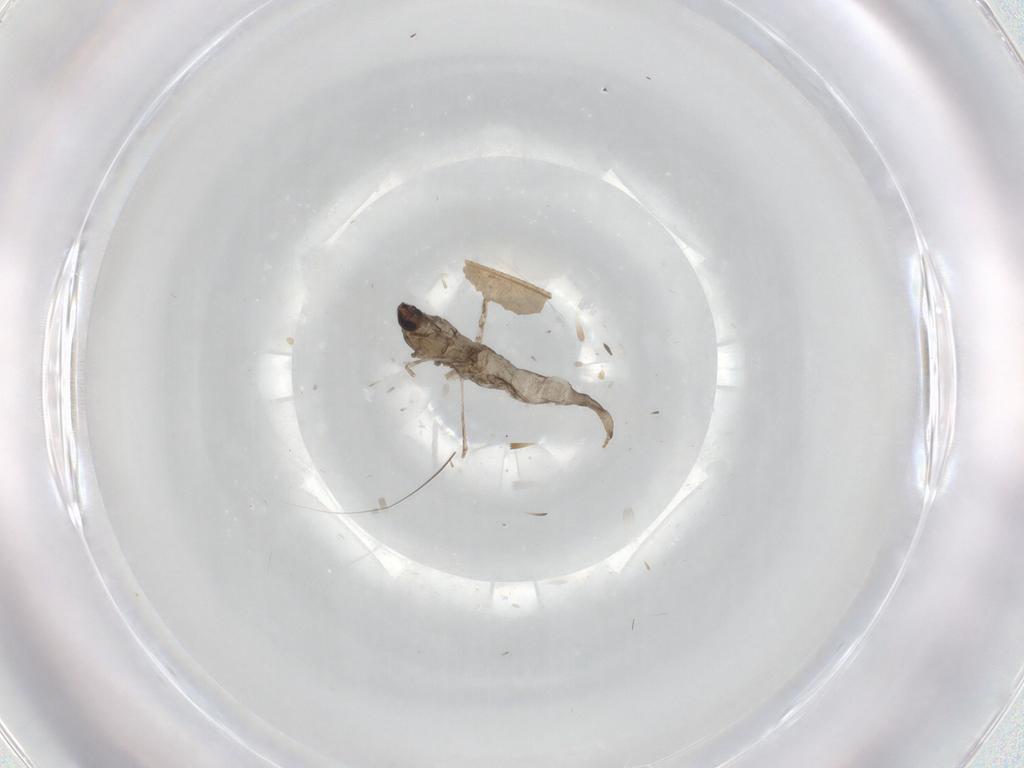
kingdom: Animalia
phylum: Arthropoda
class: Insecta
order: Diptera
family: Cecidomyiidae
